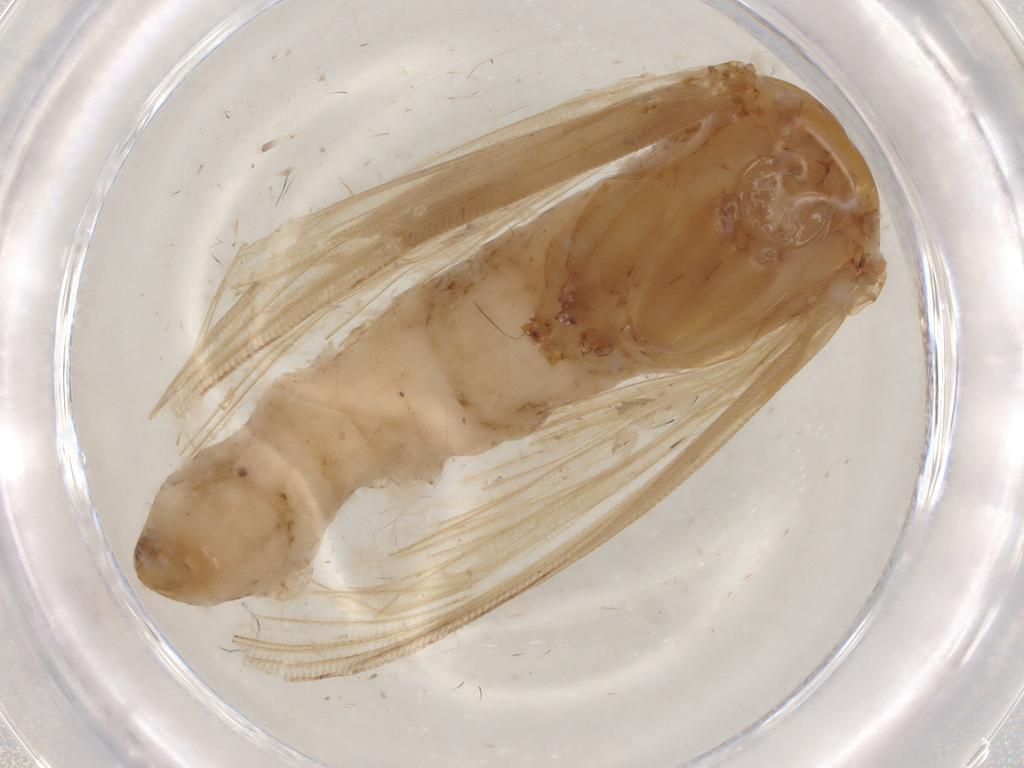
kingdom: Animalia
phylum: Arthropoda
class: Insecta
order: Lepidoptera
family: Crambidae
